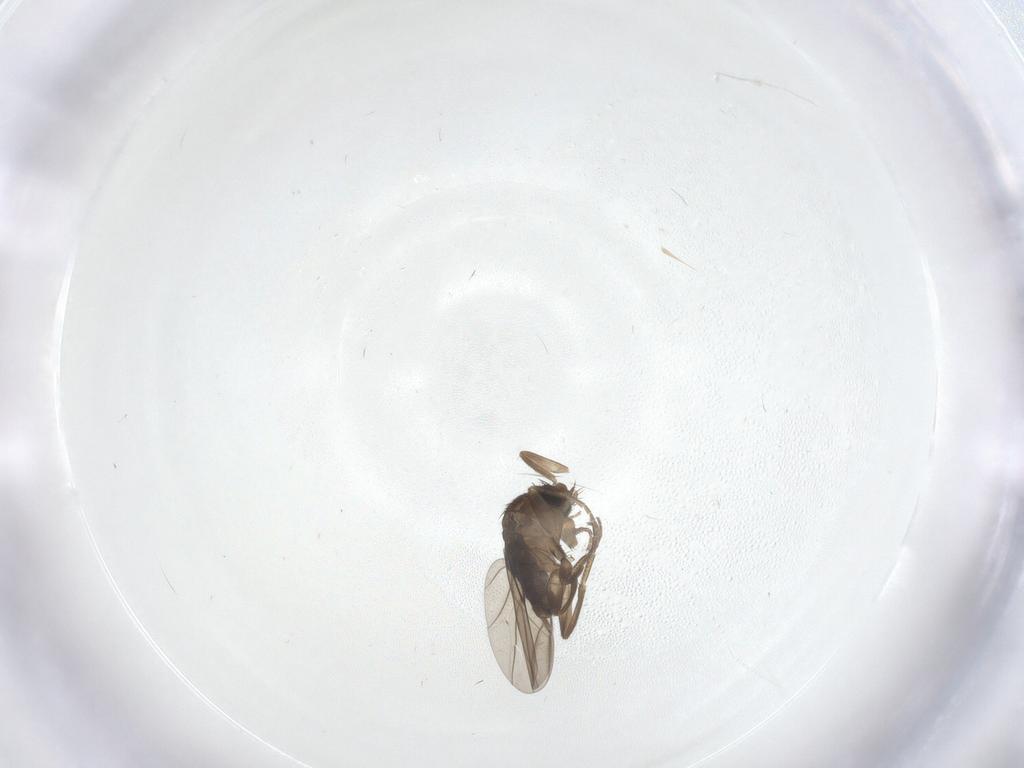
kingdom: Animalia
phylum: Arthropoda
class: Insecta
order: Diptera
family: Phoridae
